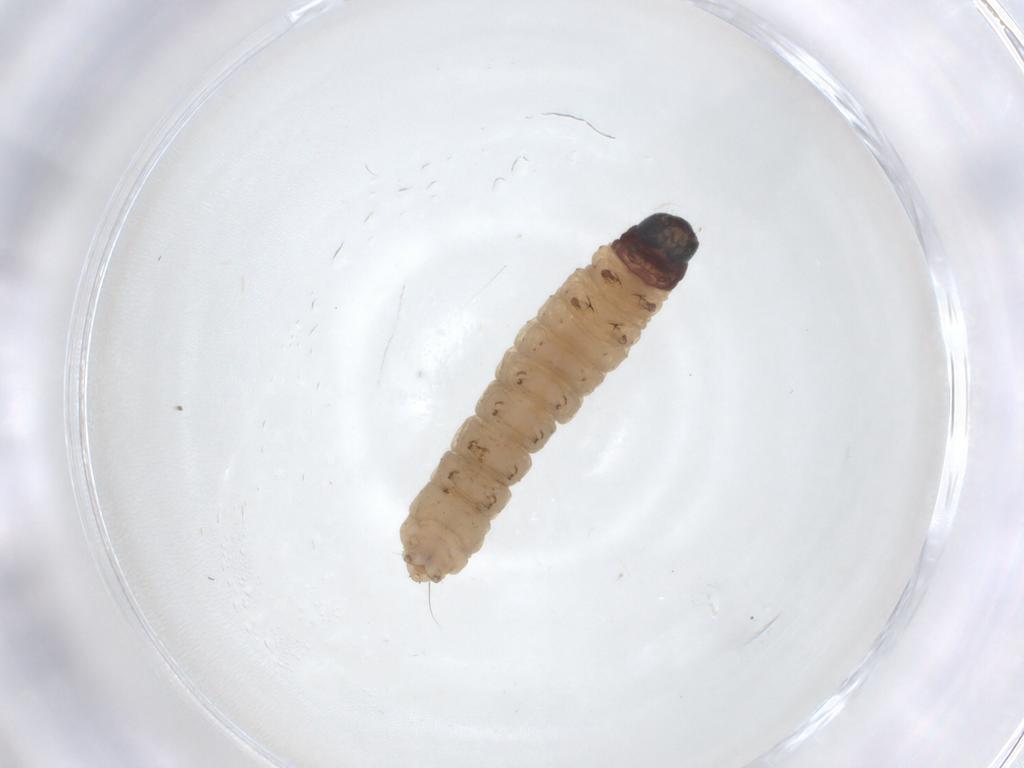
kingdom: Animalia
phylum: Arthropoda
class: Insecta
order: Lepidoptera
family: Gelechiidae
